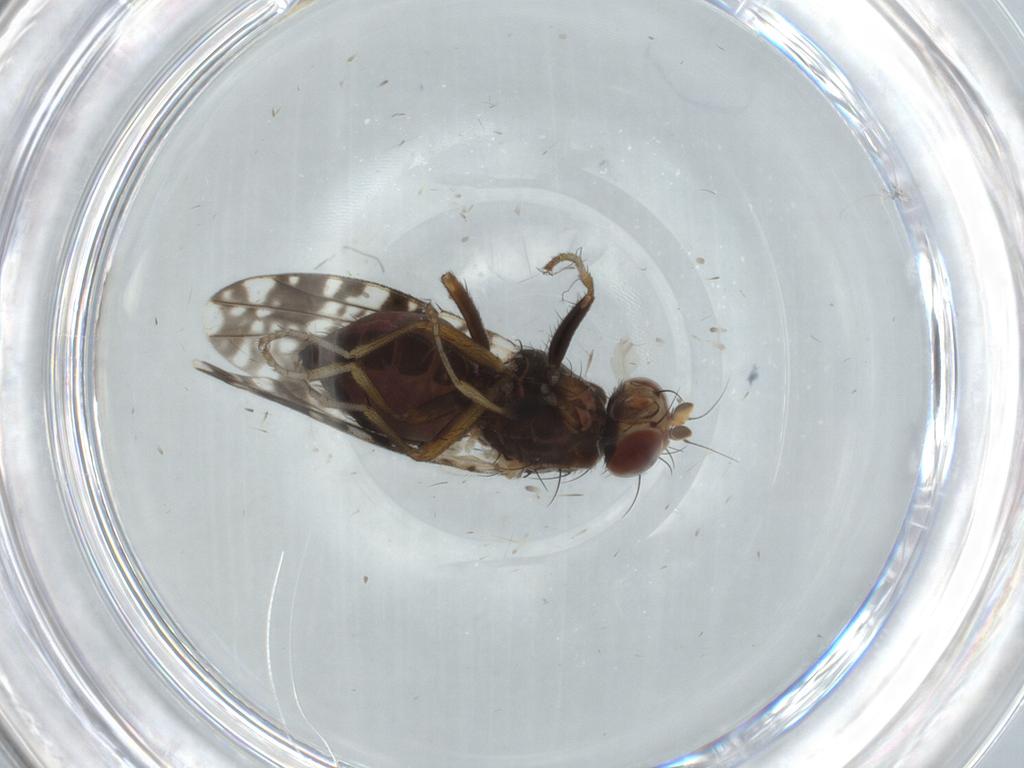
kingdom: Animalia
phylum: Arthropoda
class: Insecta
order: Diptera
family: Tephritidae
